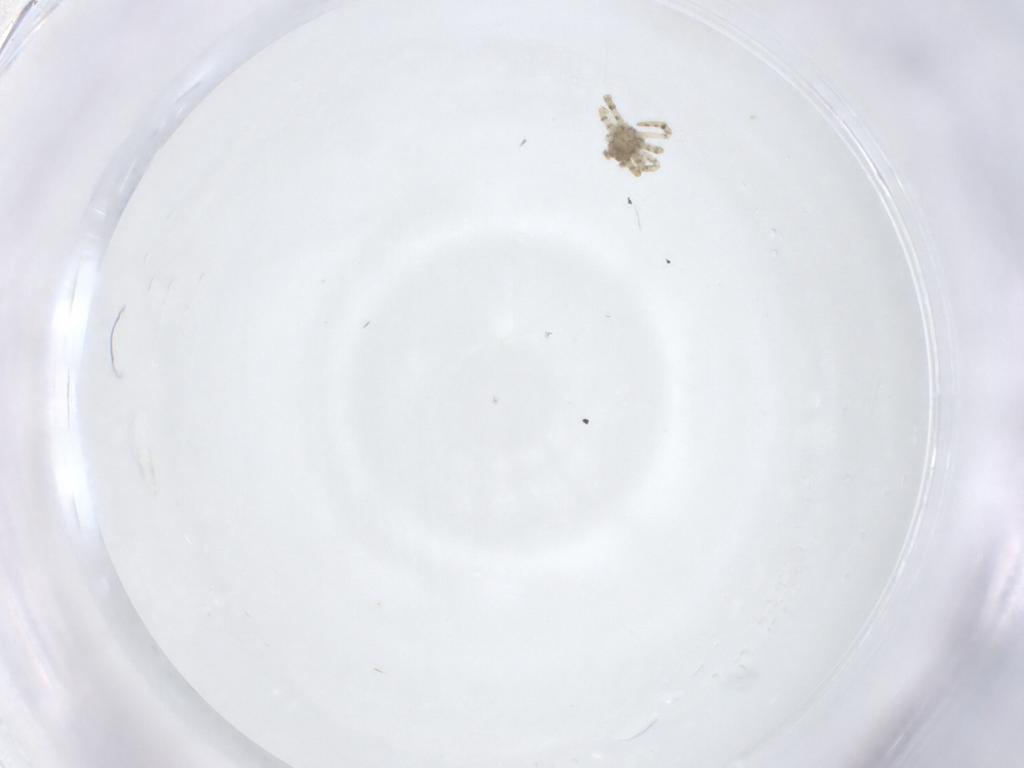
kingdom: Animalia
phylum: Arthropoda
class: Arachnida
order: Araneae
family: Theridiidae
